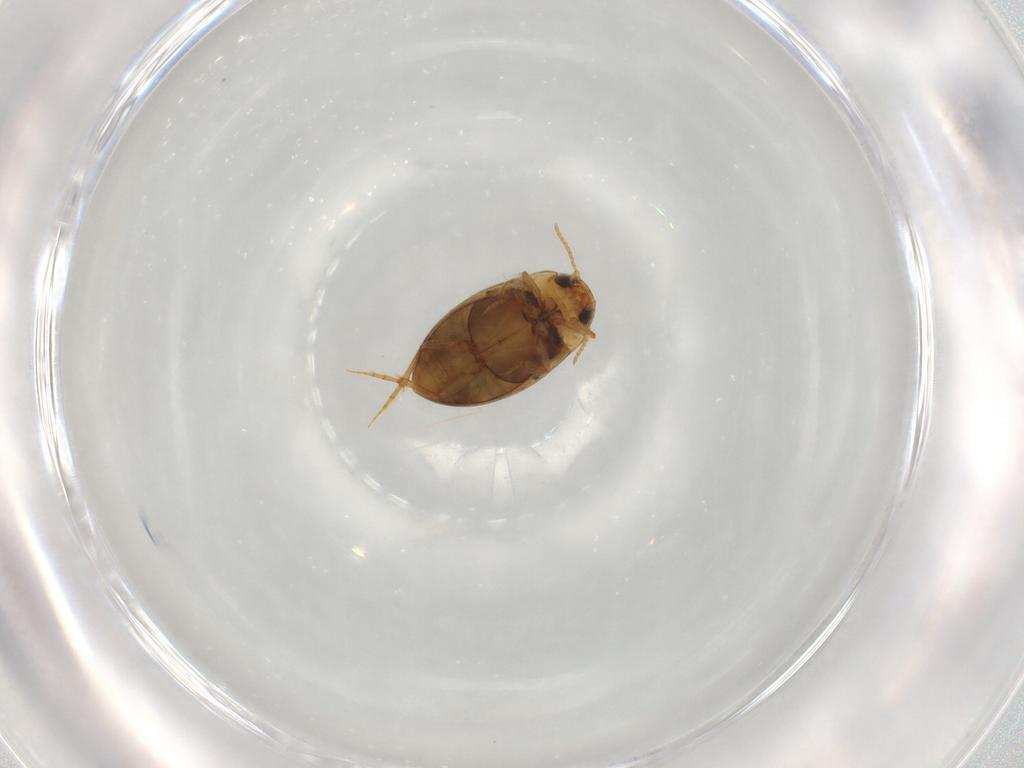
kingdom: Animalia
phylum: Arthropoda
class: Insecta
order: Coleoptera
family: Dytiscidae
